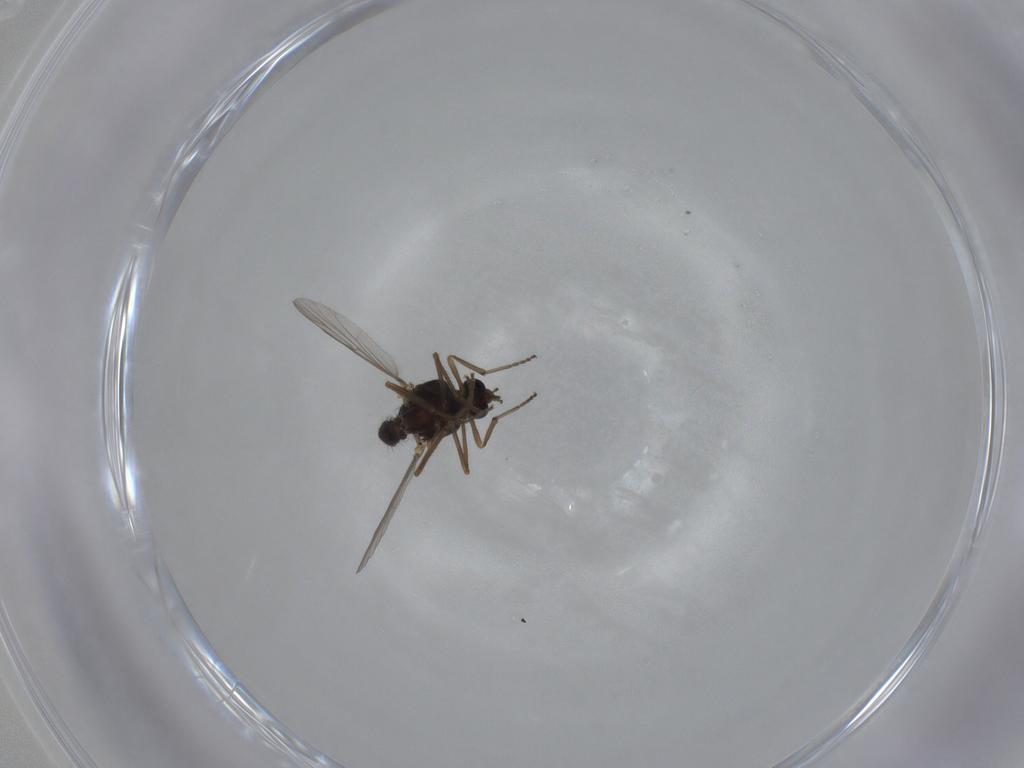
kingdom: Animalia
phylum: Arthropoda
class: Insecta
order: Diptera
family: Ceratopogonidae
